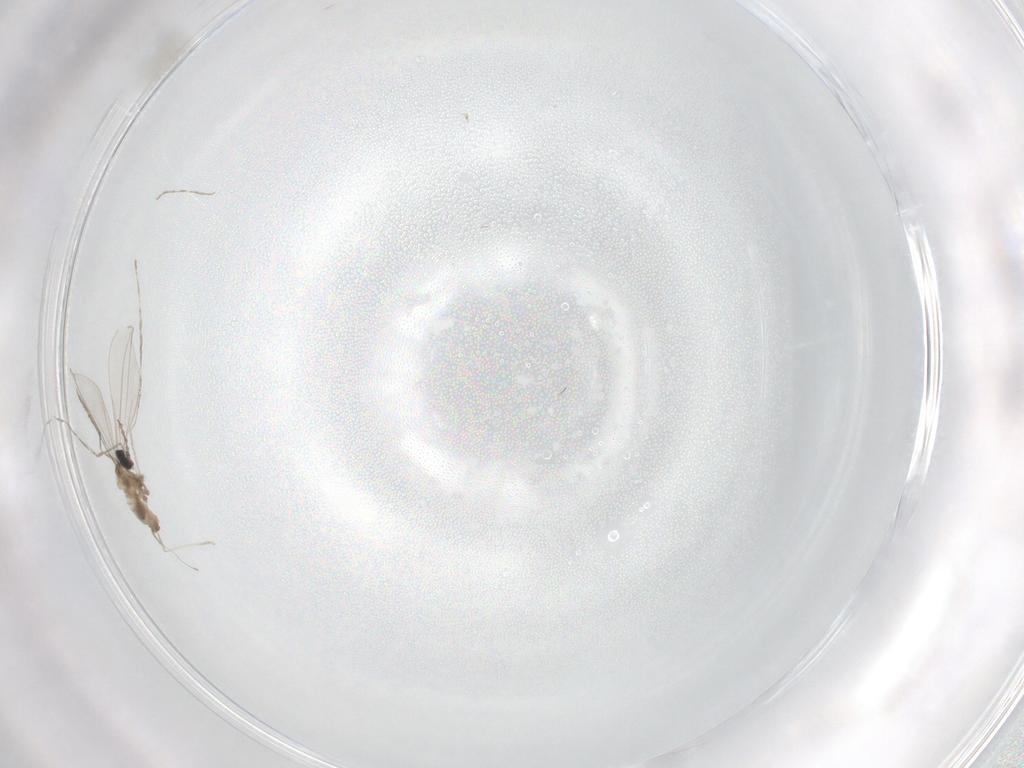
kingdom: Animalia
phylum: Arthropoda
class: Insecta
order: Diptera
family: Cecidomyiidae
